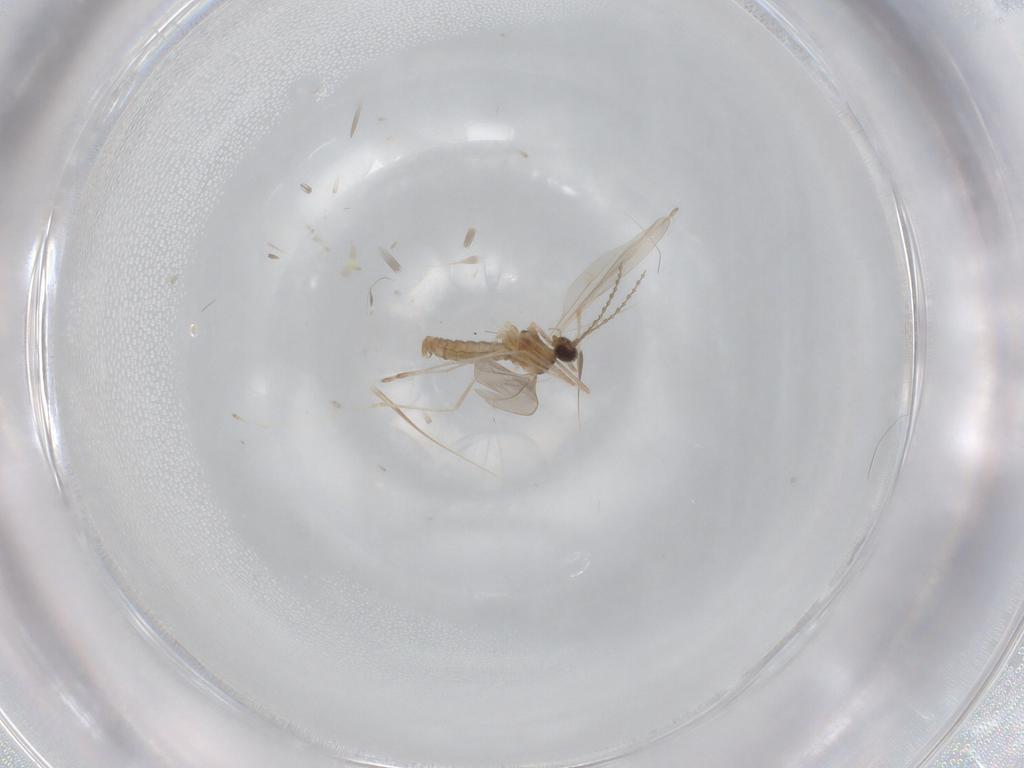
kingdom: Animalia
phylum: Arthropoda
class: Insecta
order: Diptera
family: Cecidomyiidae
